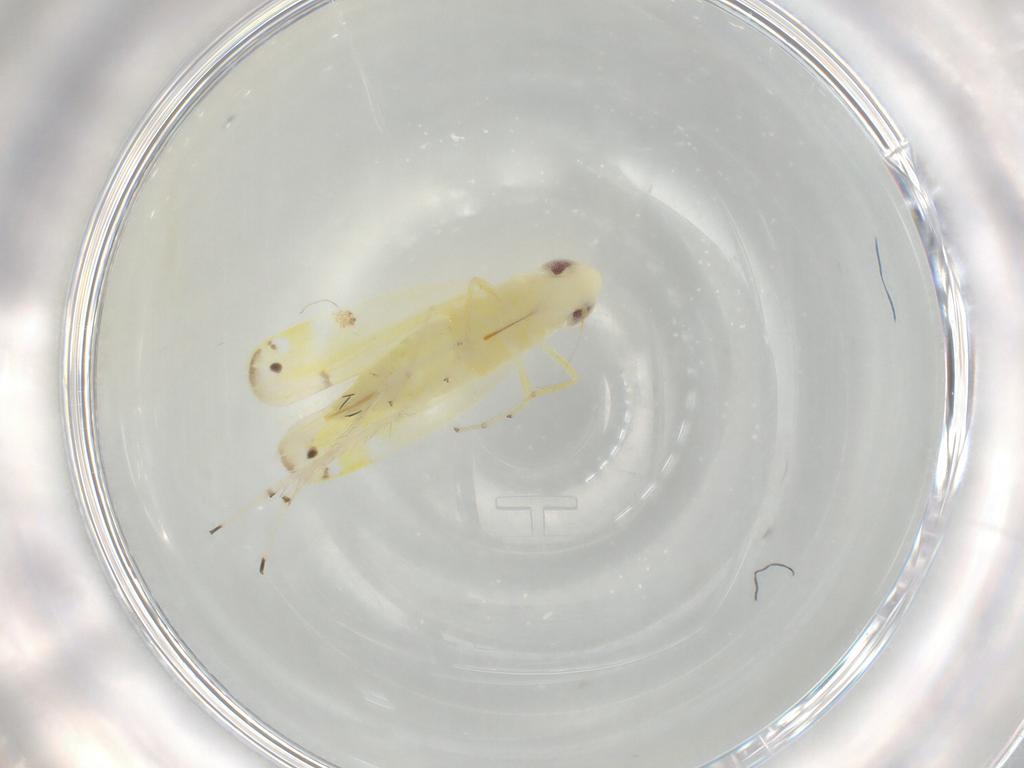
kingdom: Animalia
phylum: Arthropoda
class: Insecta
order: Hemiptera
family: Cicadellidae
